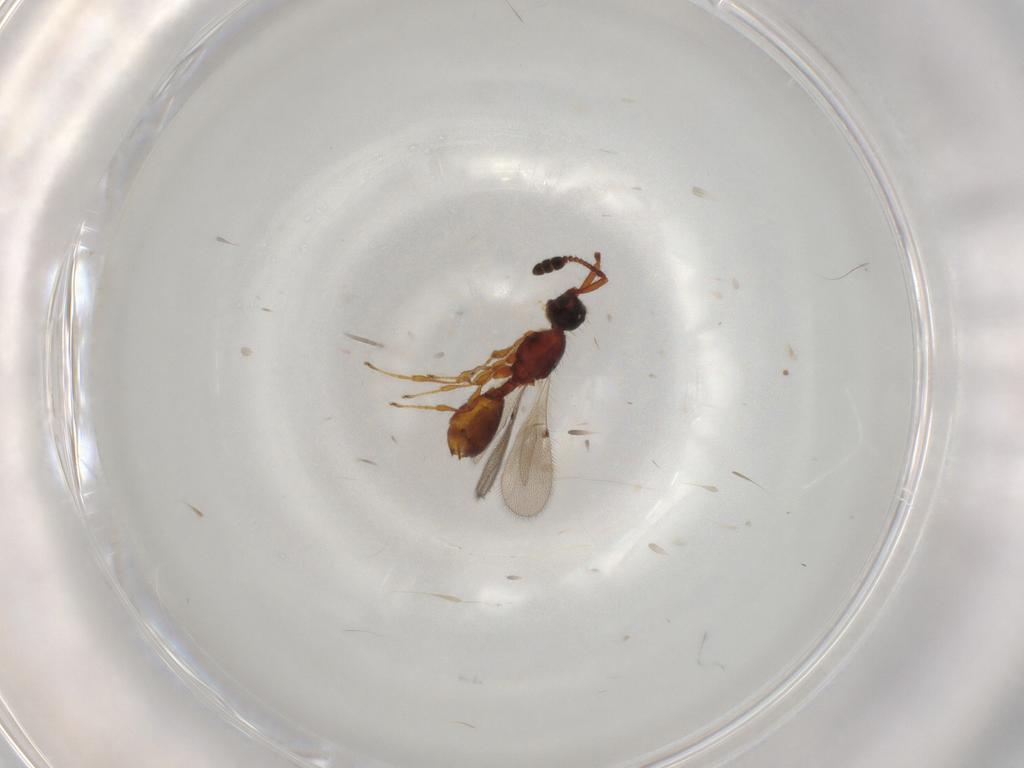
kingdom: Animalia
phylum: Arthropoda
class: Insecta
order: Hymenoptera
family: Diapriidae
